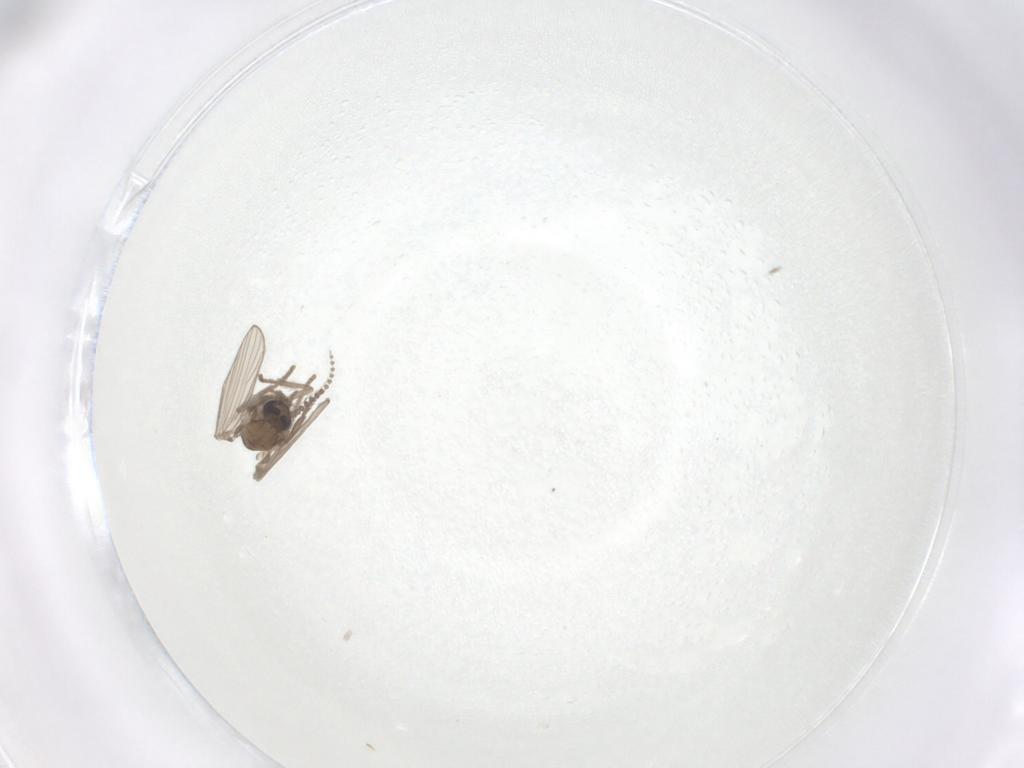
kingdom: Animalia
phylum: Arthropoda
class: Insecta
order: Diptera
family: Psychodidae
